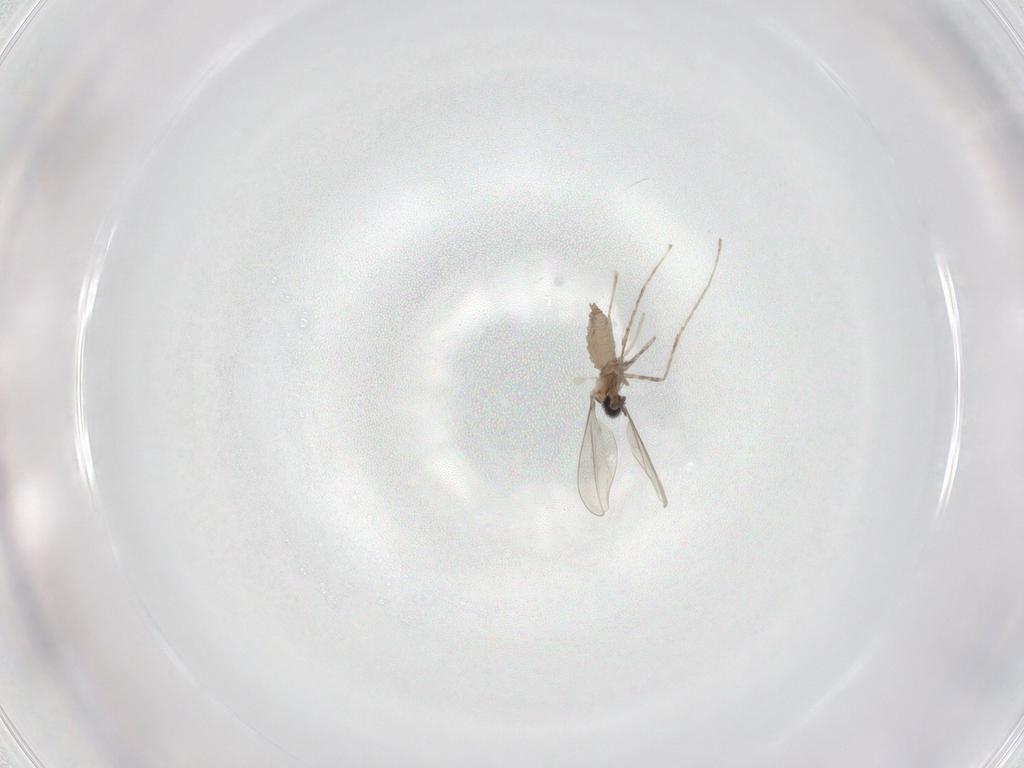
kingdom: Animalia
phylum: Arthropoda
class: Insecta
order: Diptera
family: Cecidomyiidae
